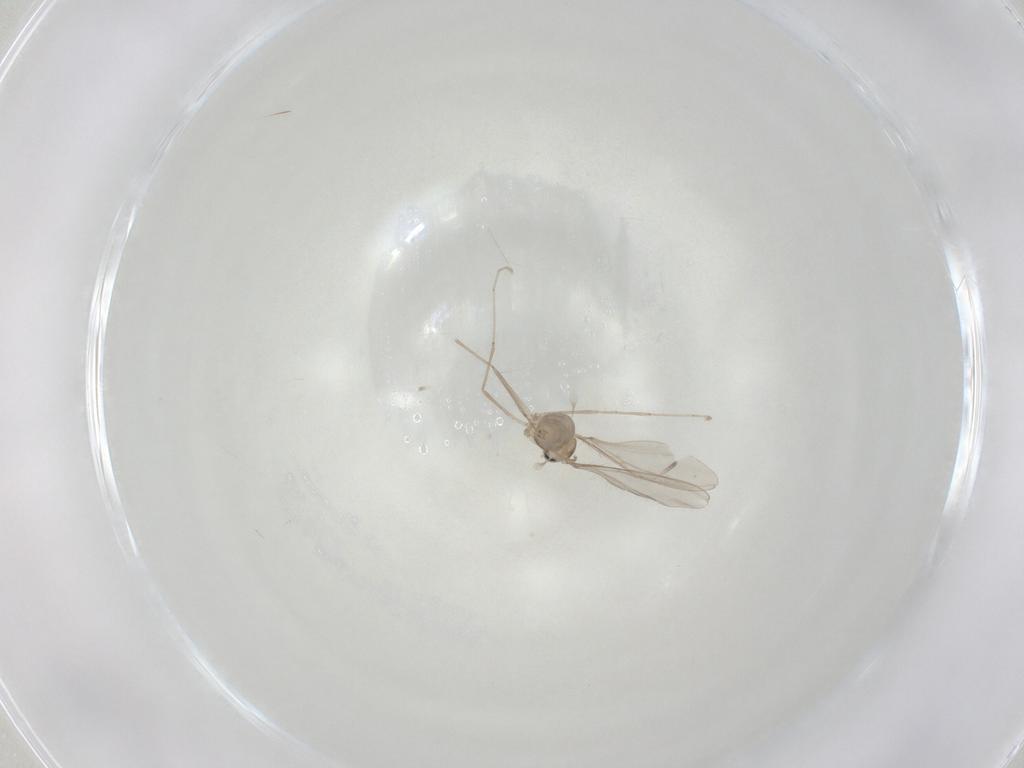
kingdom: Animalia
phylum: Arthropoda
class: Insecta
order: Diptera
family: Cecidomyiidae
